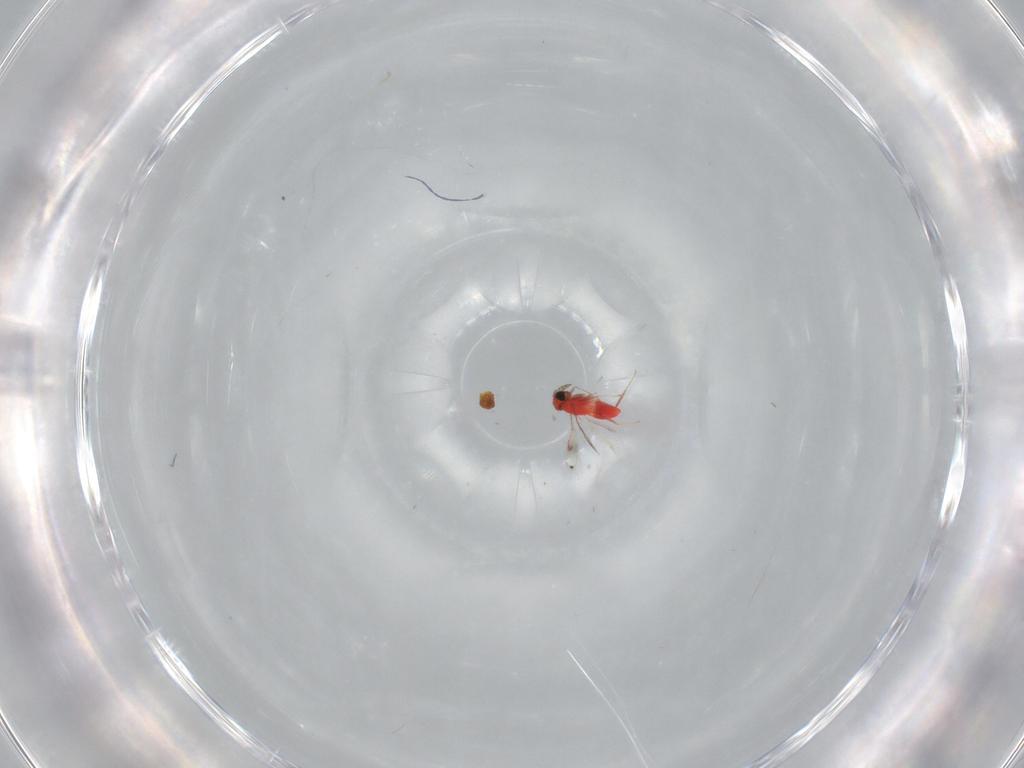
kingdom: Animalia
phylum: Arthropoda
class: Insecta
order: Hymenoptera
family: Trichogrammatidae
